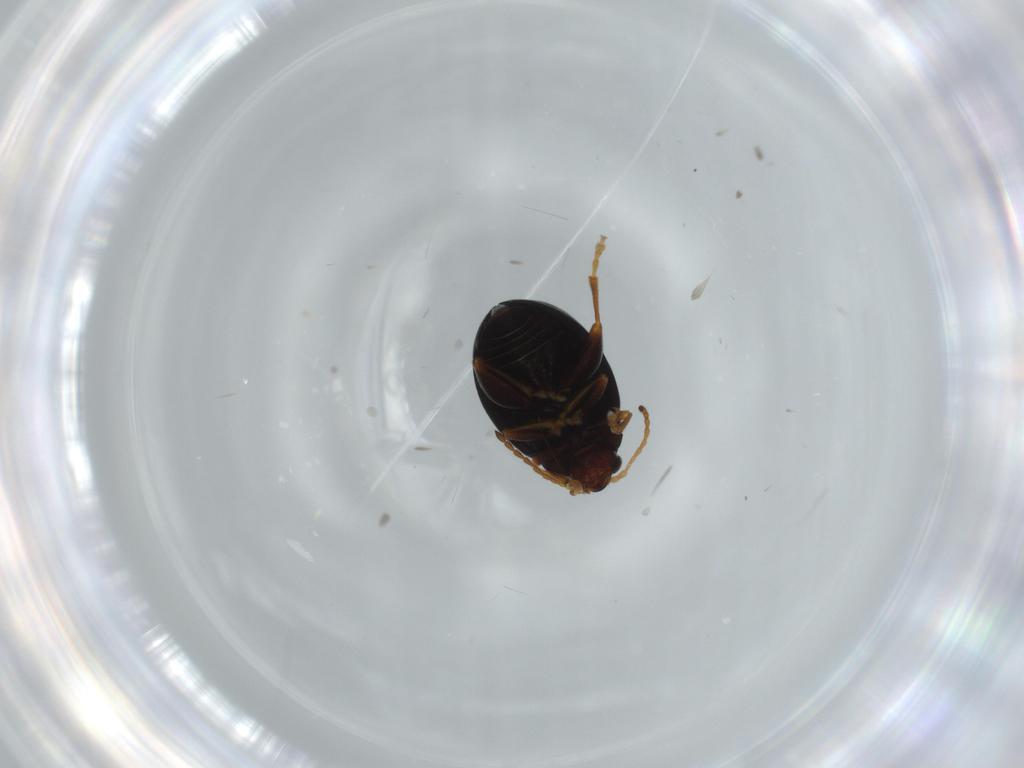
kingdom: Animalia
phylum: Arthropoda
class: Insecta
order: Coleoptera
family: Chrysomelidae
